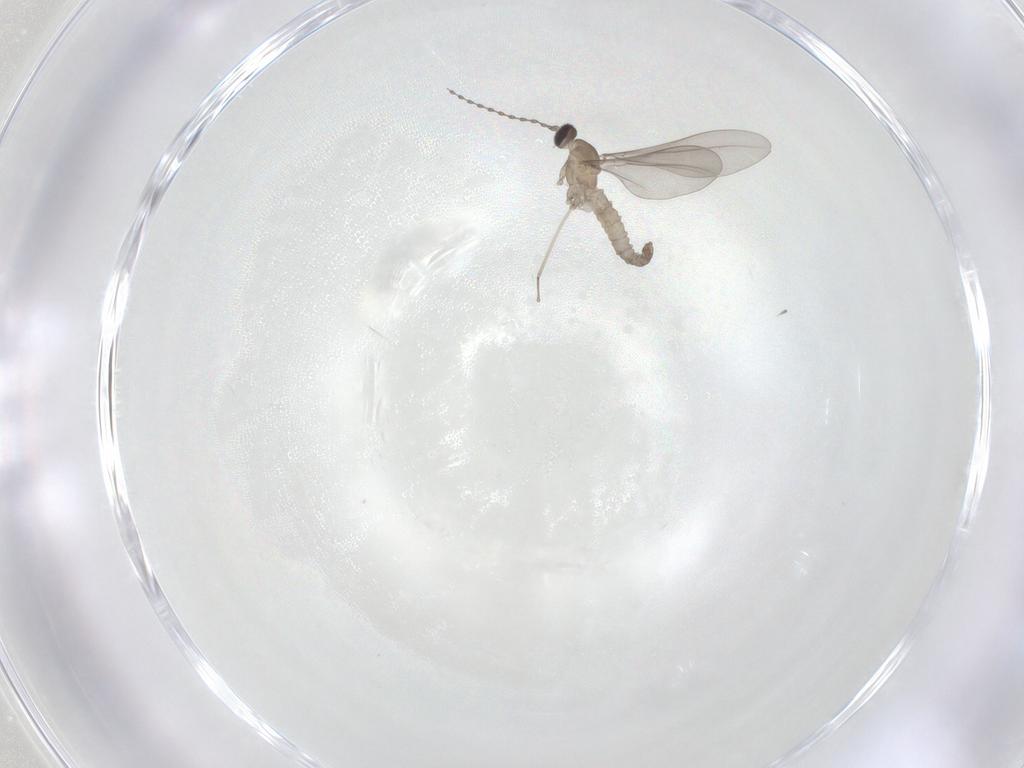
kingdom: Animalia
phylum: Arthropoda
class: Insecta
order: Diptera
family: Cecidomyiidae
